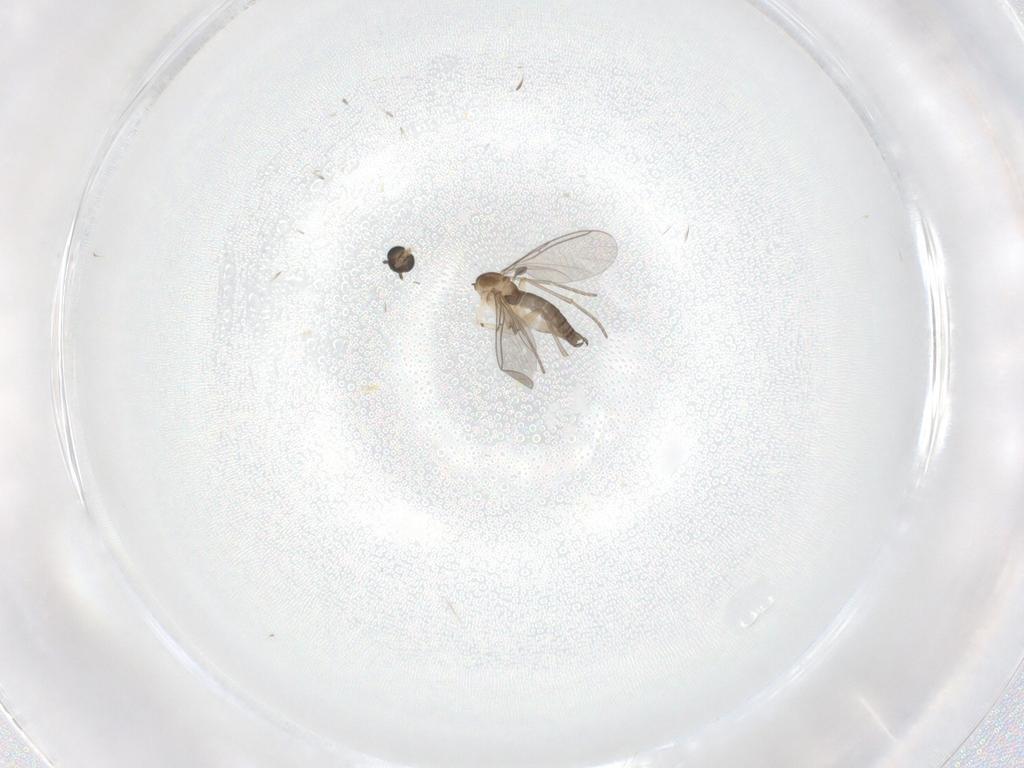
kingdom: Animalia
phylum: Arthropoda
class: Insecta
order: Diptera
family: Sciaridae
